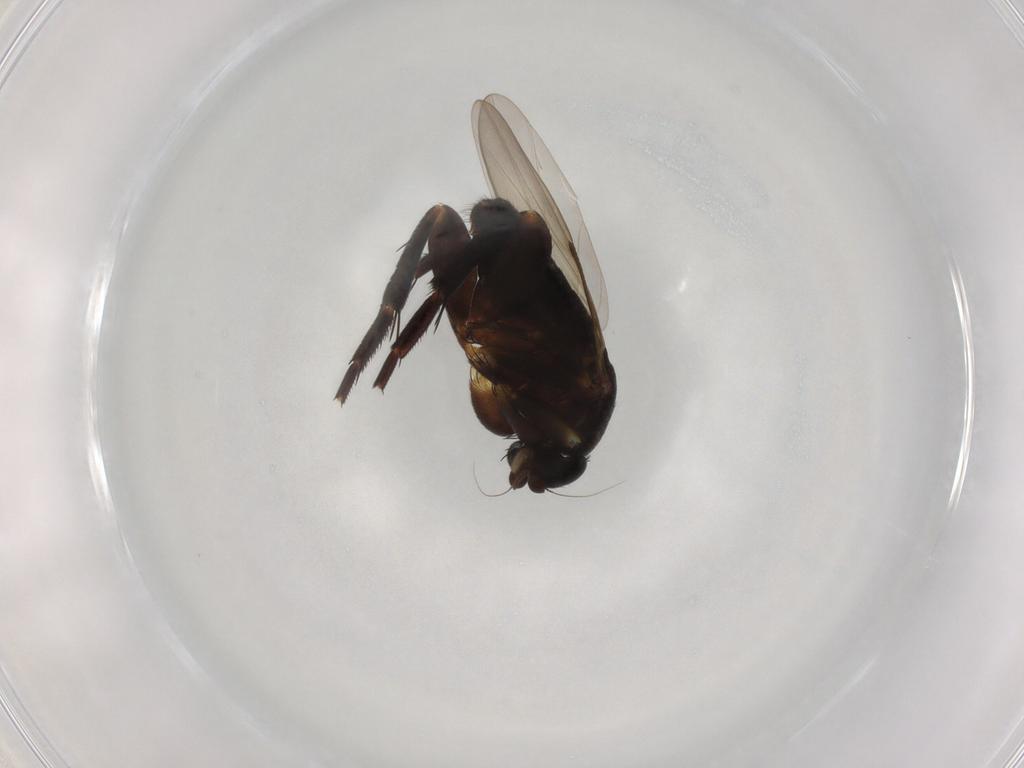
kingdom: Animalia
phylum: Arthropoda
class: Insecta
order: Diptera
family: Phoridae
